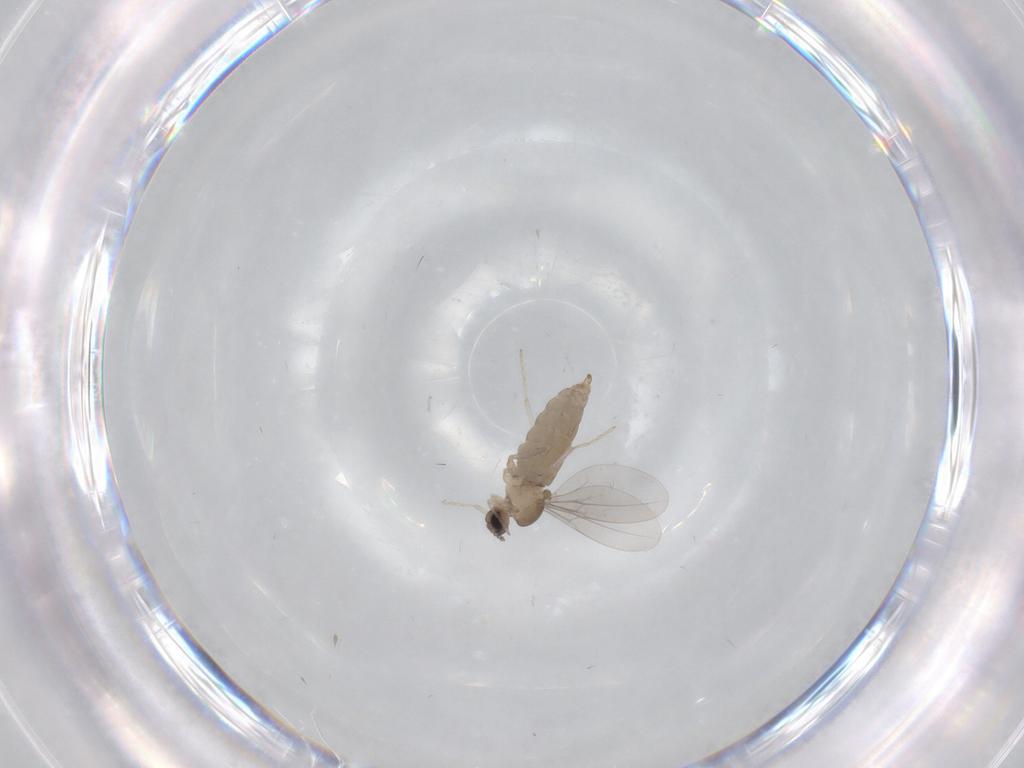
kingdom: Animalia
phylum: Arthropoda
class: Insecta
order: Diptera
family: Cecidomyiidae
